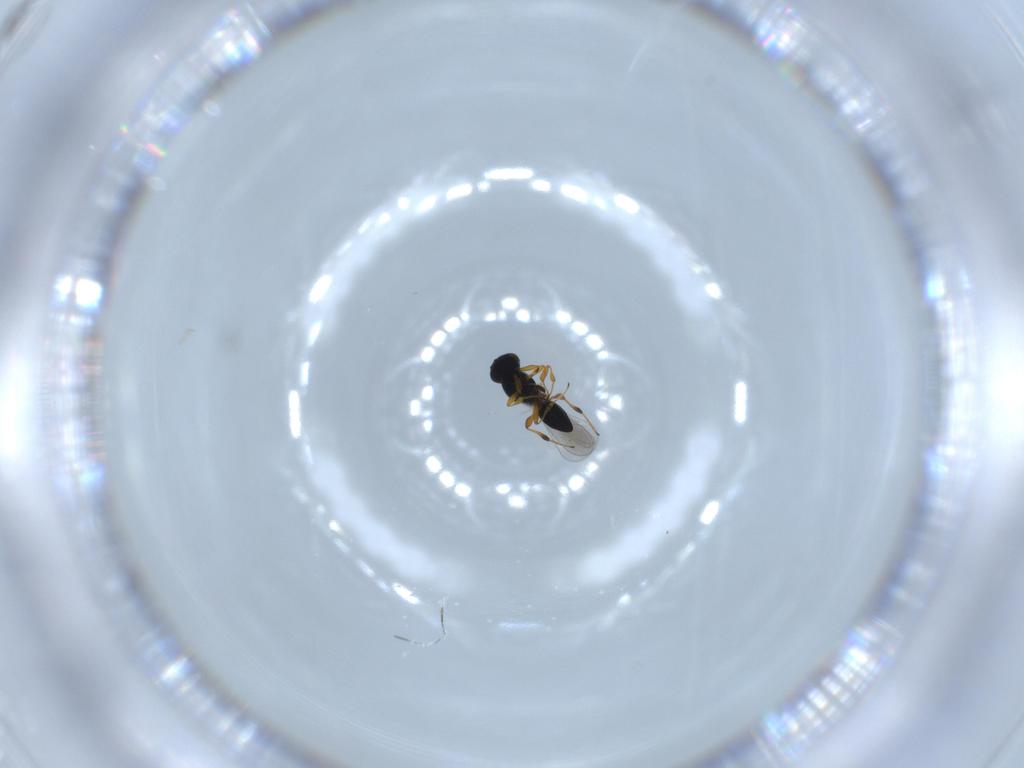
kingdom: Animalia
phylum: Arthropoda
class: Insecta
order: Hymenoptera
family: Platygastridae
